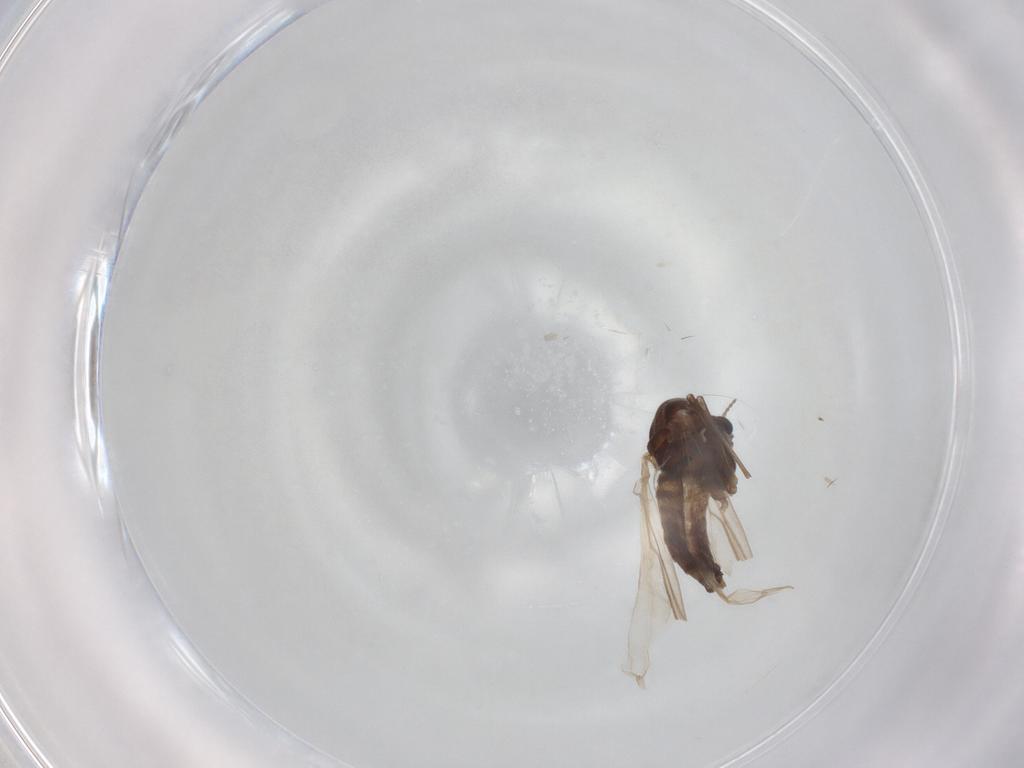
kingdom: Animalia
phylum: Arthropoda
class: Insecta
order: Diptera
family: Chironomidae
